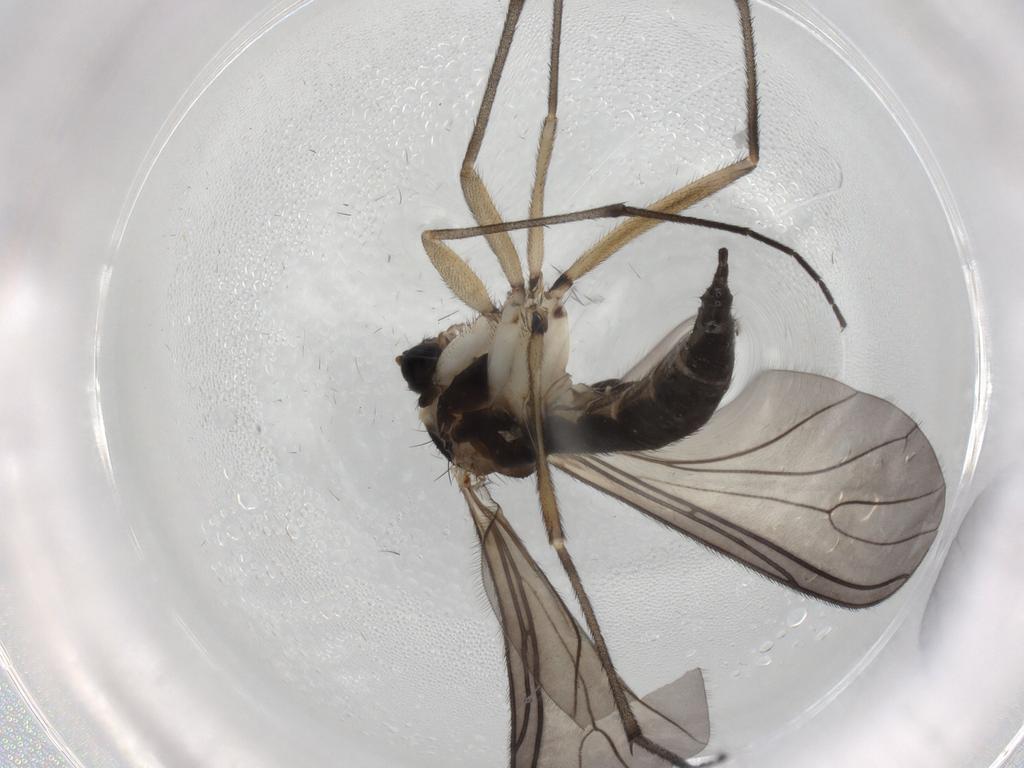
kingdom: Animalia
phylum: Arthropoda
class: Insecta
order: Diptera
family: Sciaridae
